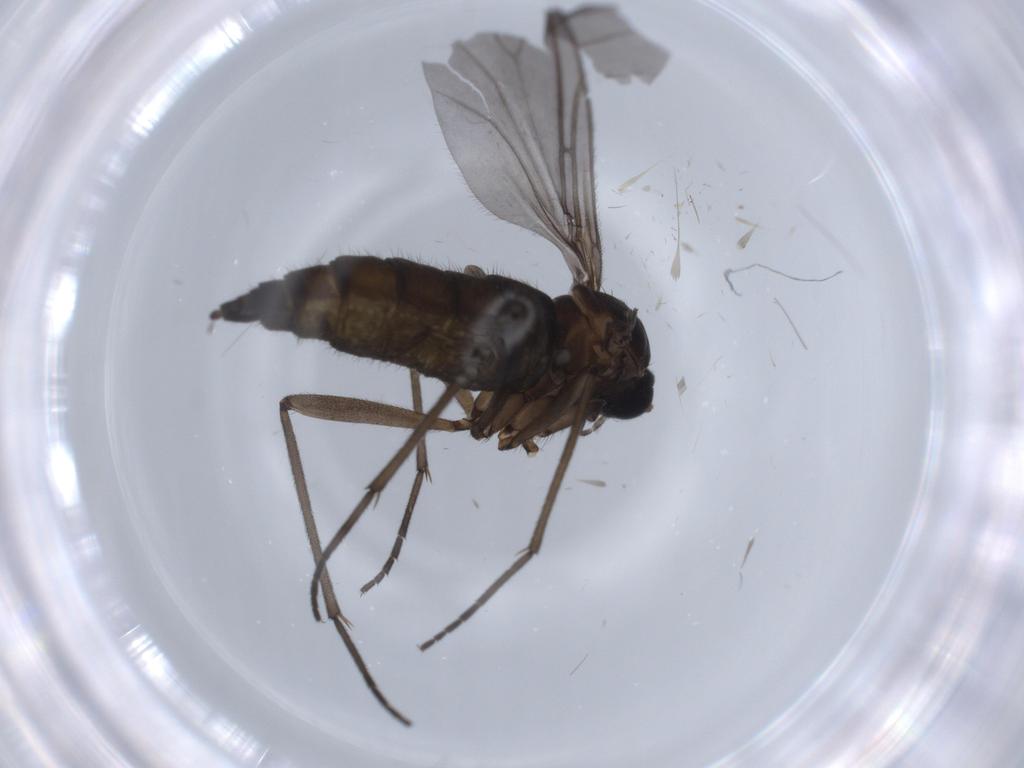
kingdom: Animalia
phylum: Arthropoda
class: Insecta
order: Diptera
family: Sciaridae
